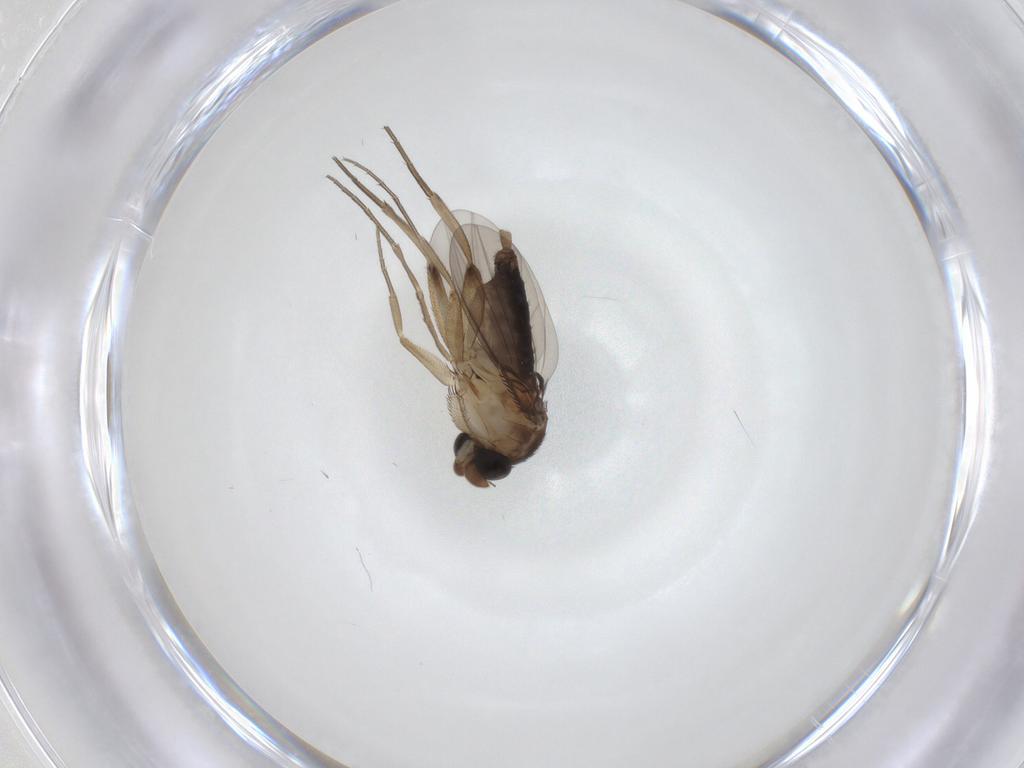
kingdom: Animalia
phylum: Arthropoda
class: Insecta
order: Diptera
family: Phoridae
